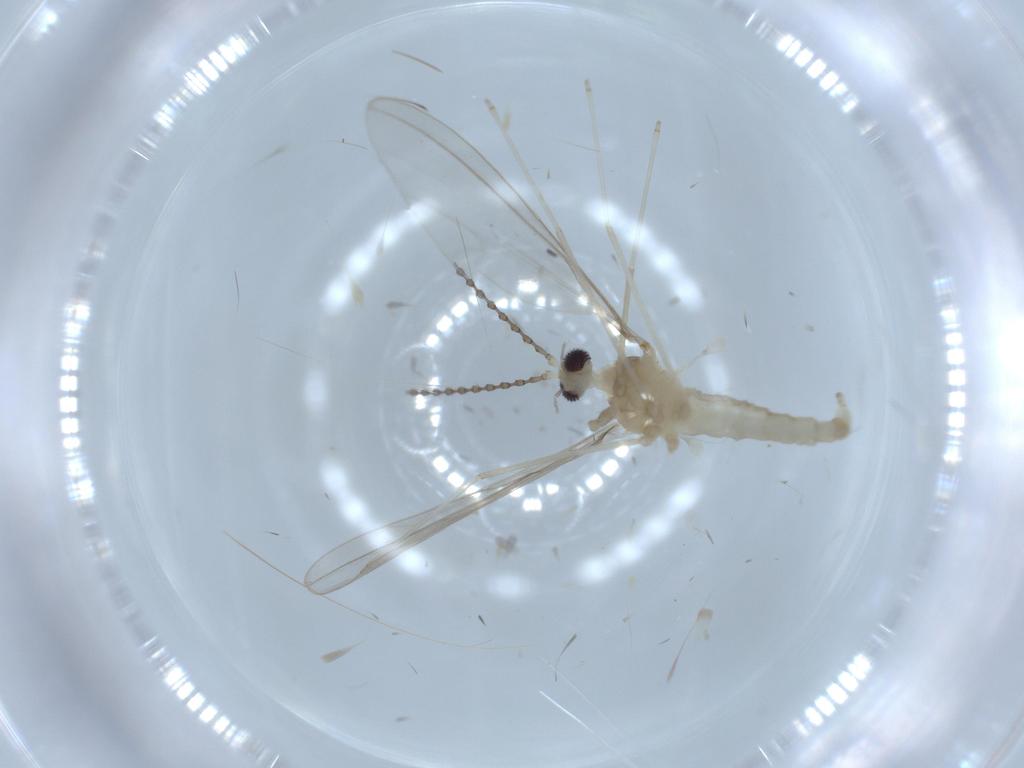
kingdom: Animalia
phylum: Arthropoda
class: Insecta
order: Diptera
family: Cecidomyiidae
